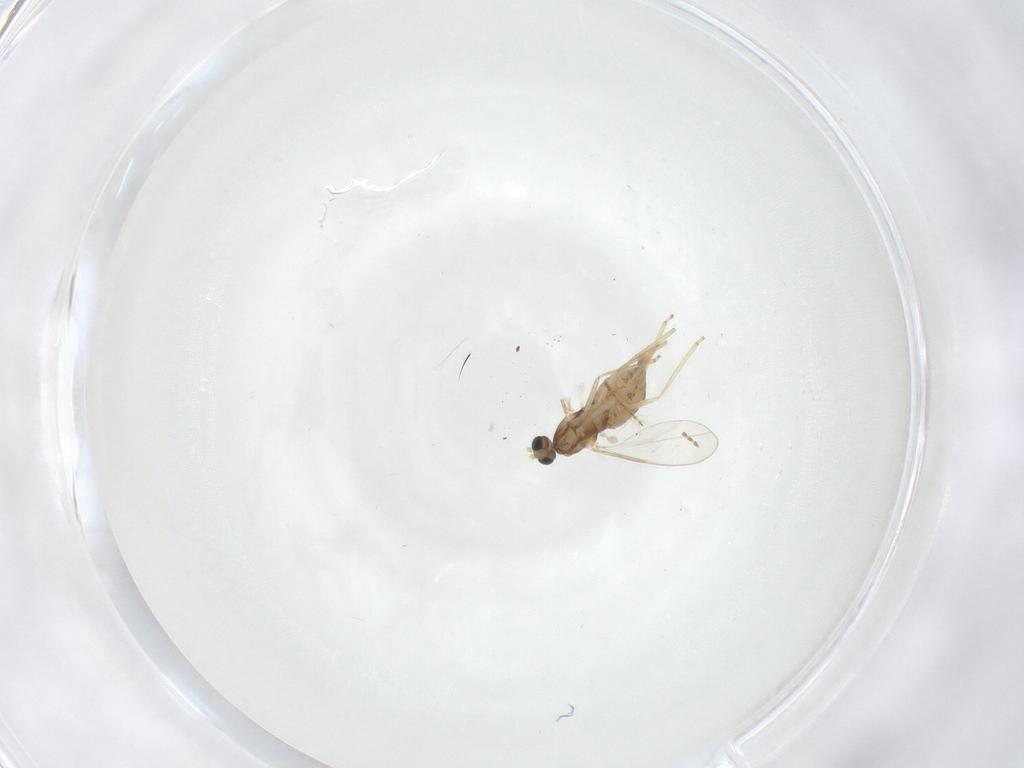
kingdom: Animalia
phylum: Arthropoda
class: Insecta
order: Diptera
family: Cecidomyiidae
